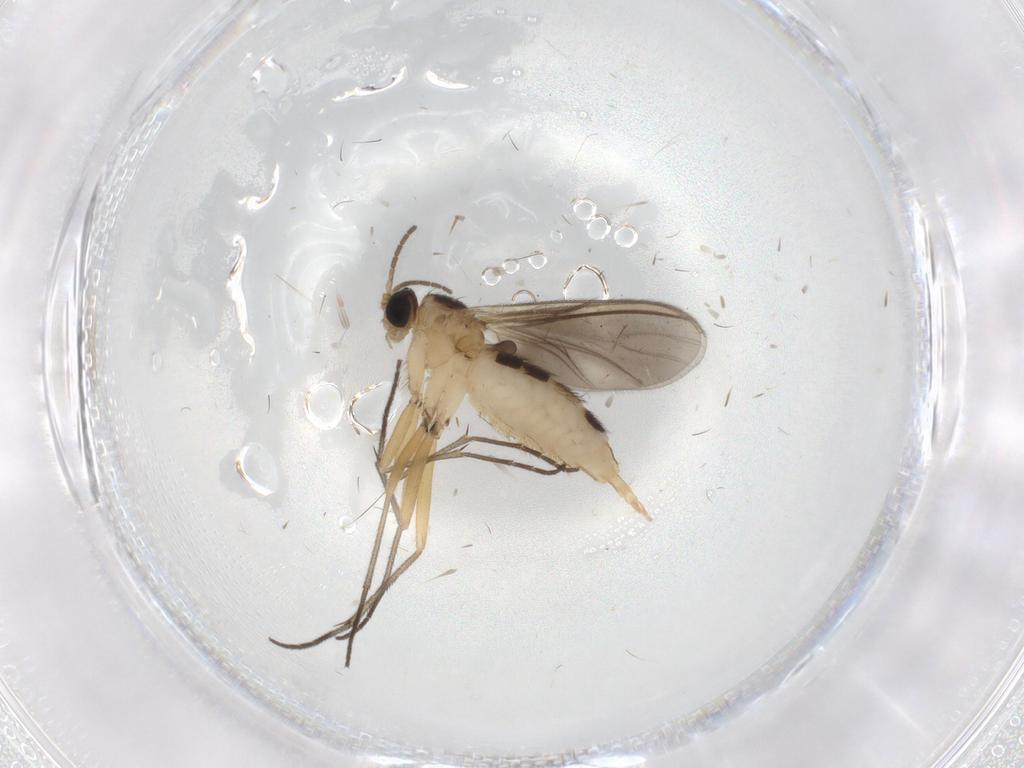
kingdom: Animalia
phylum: Arthropoda
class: Insecta
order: Diptera
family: Sciaridae
